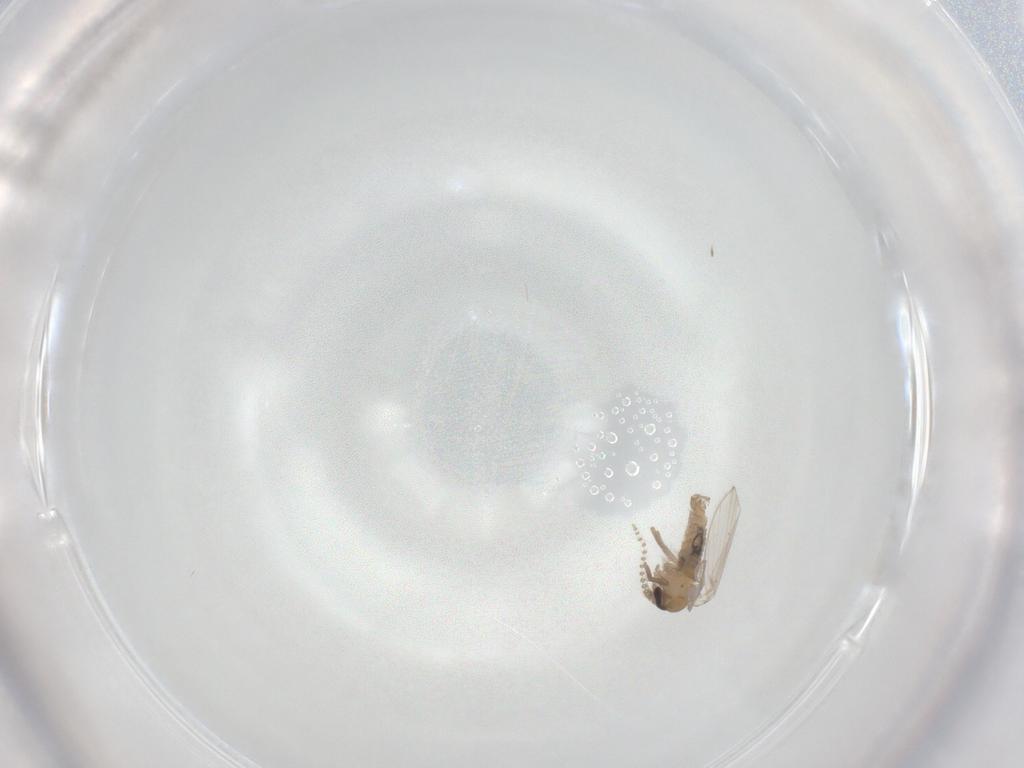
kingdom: Animalia
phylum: Arthropoda
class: Insecta
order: Diptera
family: Psychodidae
